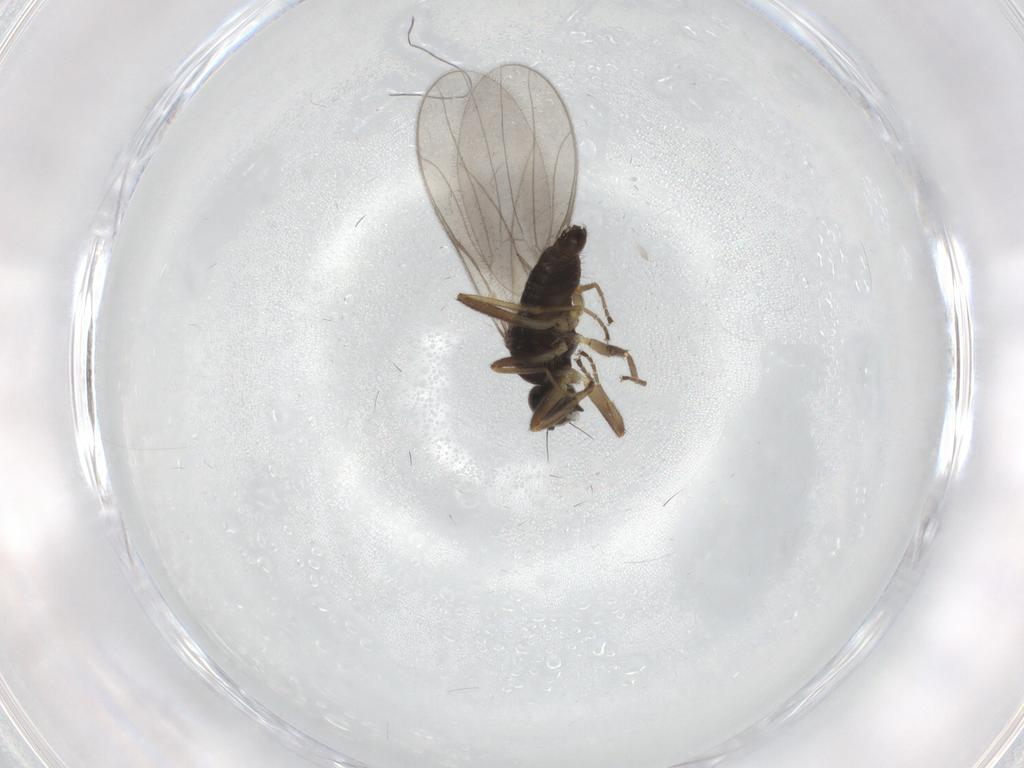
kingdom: Animalia
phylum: Arthropoda
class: Insecta
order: Diptera
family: Hybotidae
